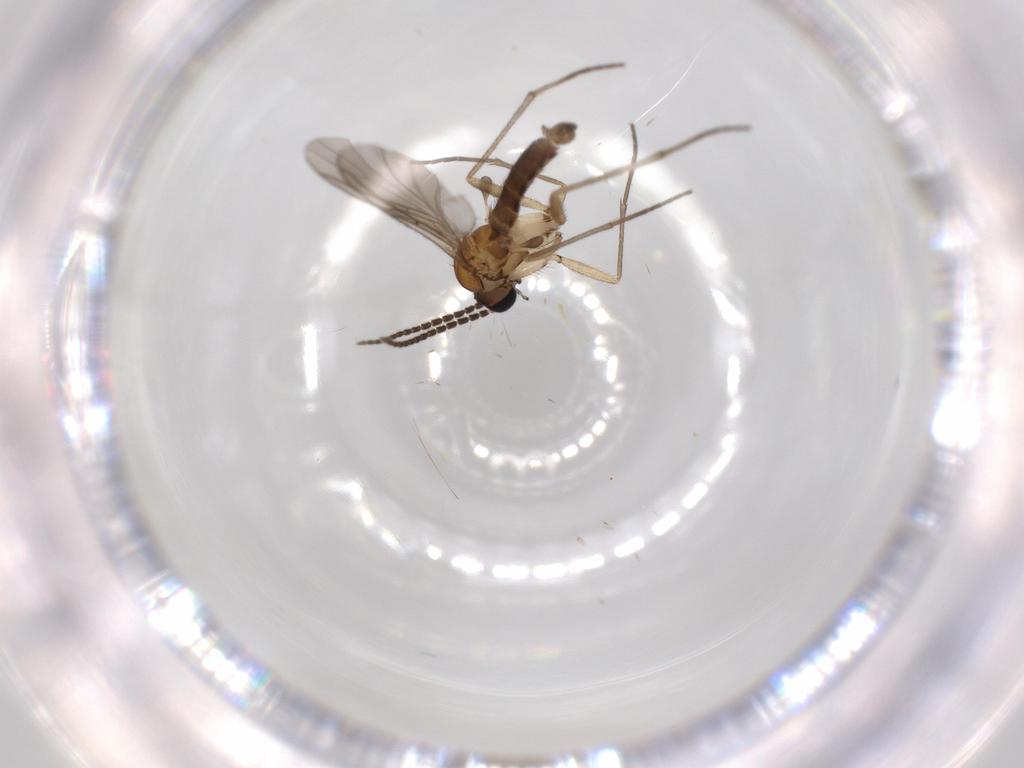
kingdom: Animalia
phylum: Arthropoda
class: Insecta
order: Diptera
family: Sciaridae
